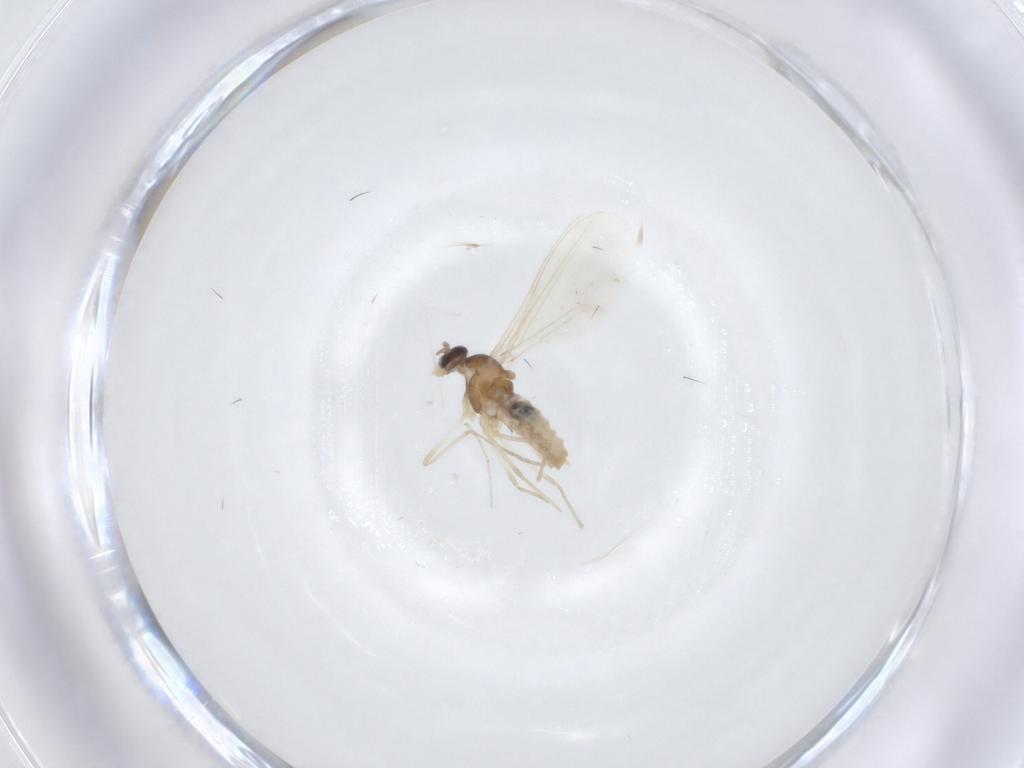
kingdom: Animalia
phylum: Arthropoda
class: Insecta
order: Diptera
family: Cecidomyiidae
